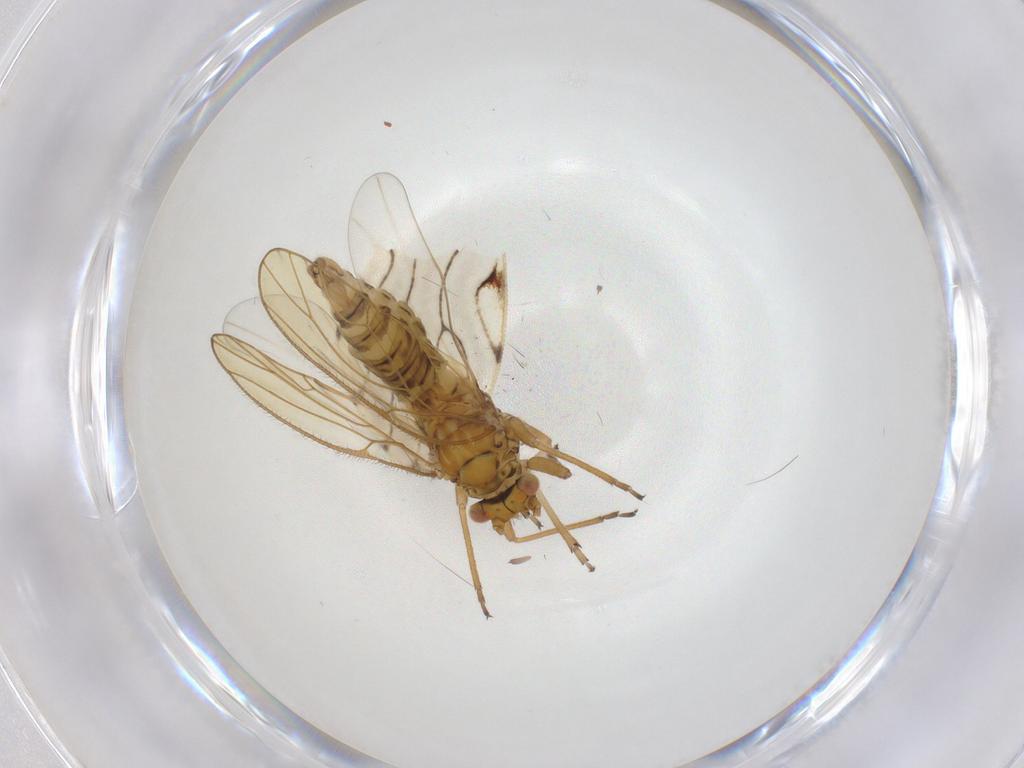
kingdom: Animalia
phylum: Arthropoda
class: Insecta
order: Psocodea
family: Epipsocidae
